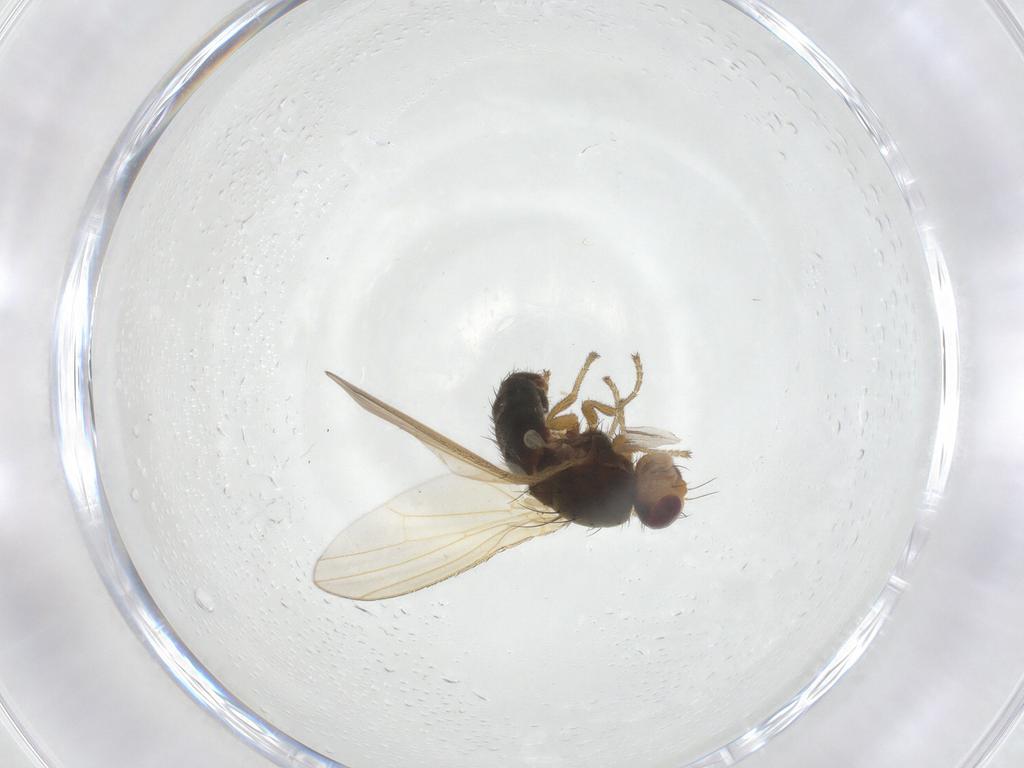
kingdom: Animalia
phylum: Arthropoda
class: Insecta
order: Diptera
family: Heleomyzidae
